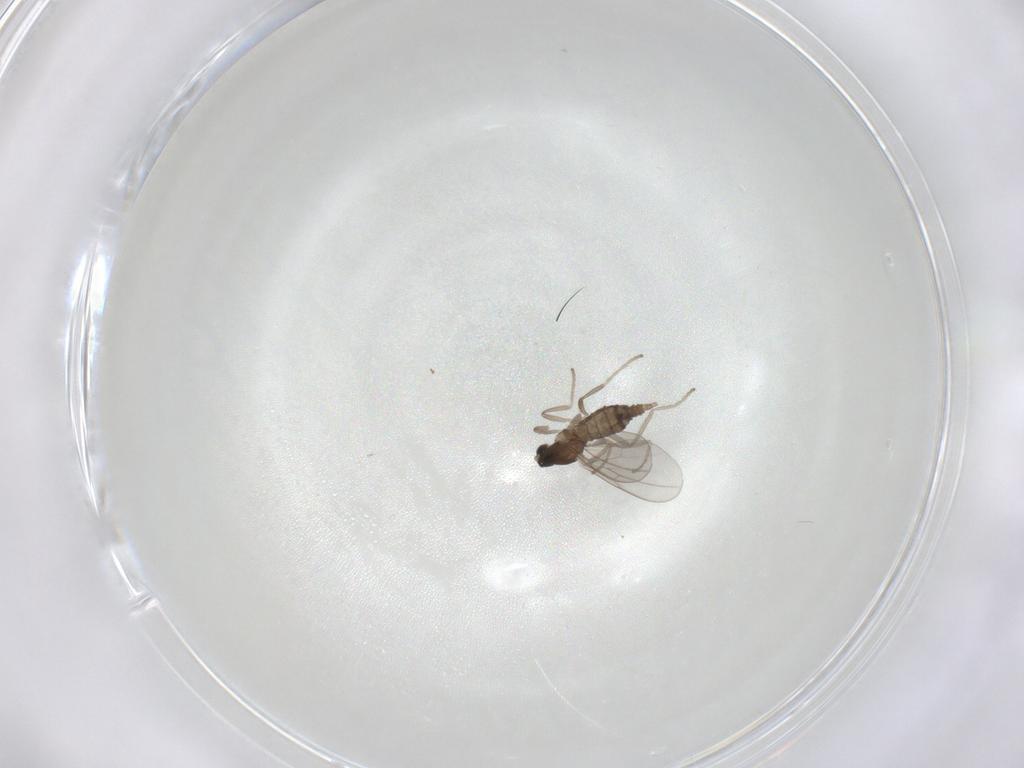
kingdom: Animalia
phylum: Arthropoda
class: Insecta
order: Diptera
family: Cecidomyiidae
